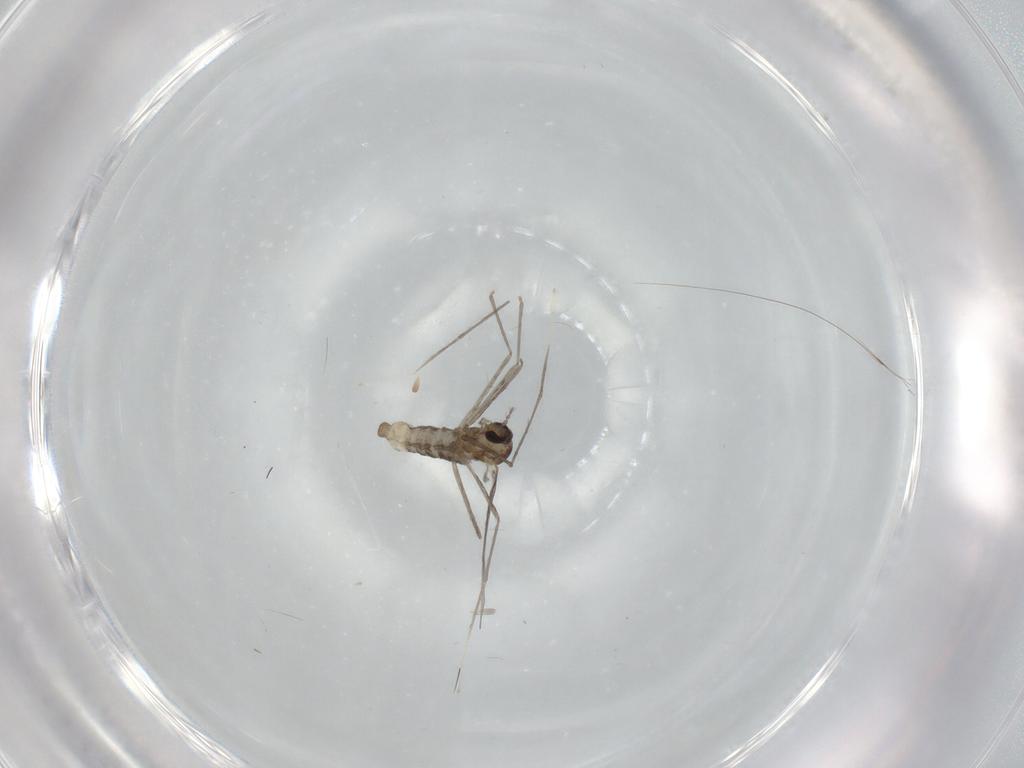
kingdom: Animalia
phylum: Arthropoda
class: Insecta
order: Diptera
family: Cecidomyiidae
